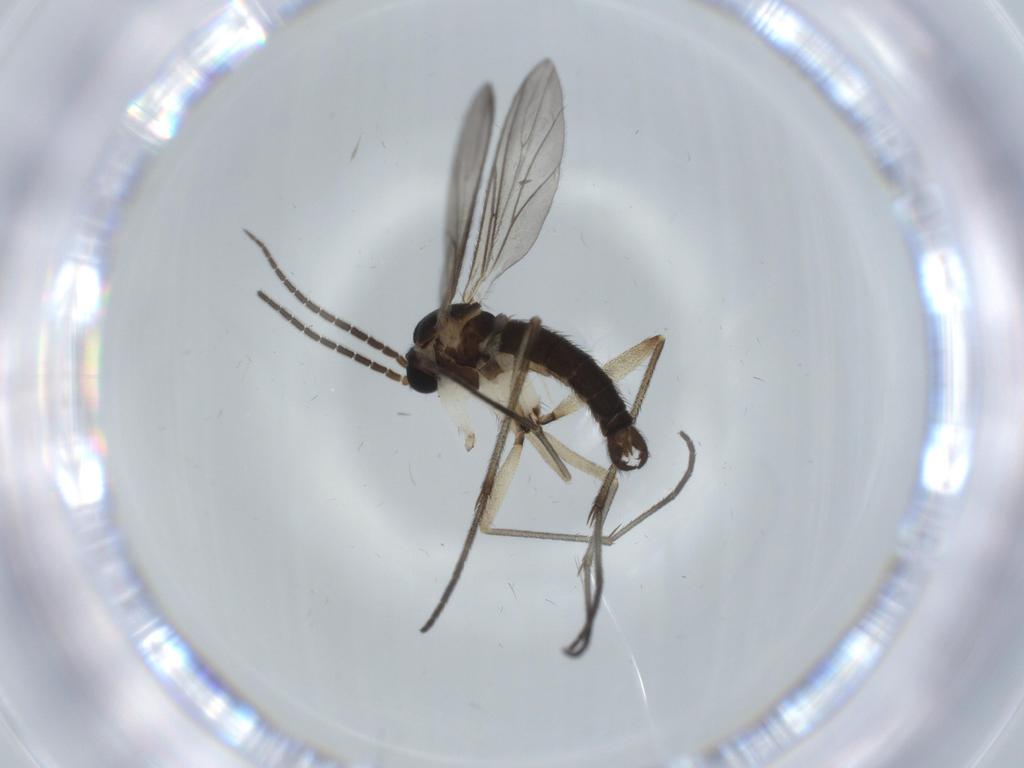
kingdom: Animalia
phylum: Arthropoda
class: Insecta
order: Diptera
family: Sciaridae
